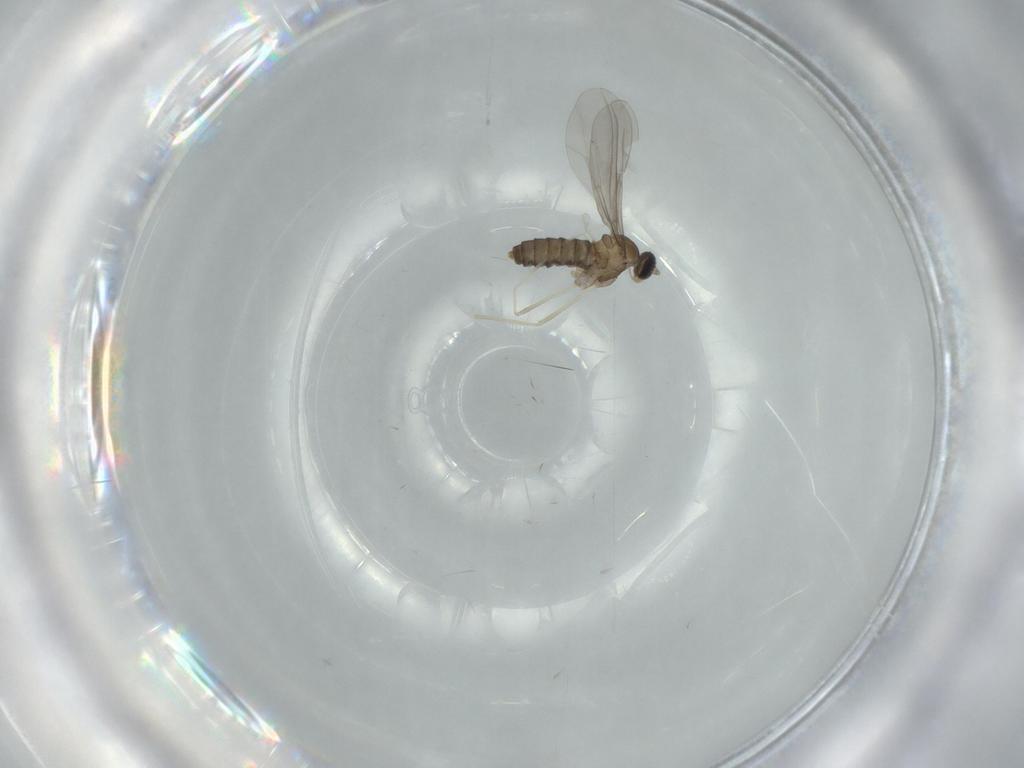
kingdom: Animalia
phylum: Arthropoda
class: Insecta
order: Diptera
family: Cecidomyiidae
